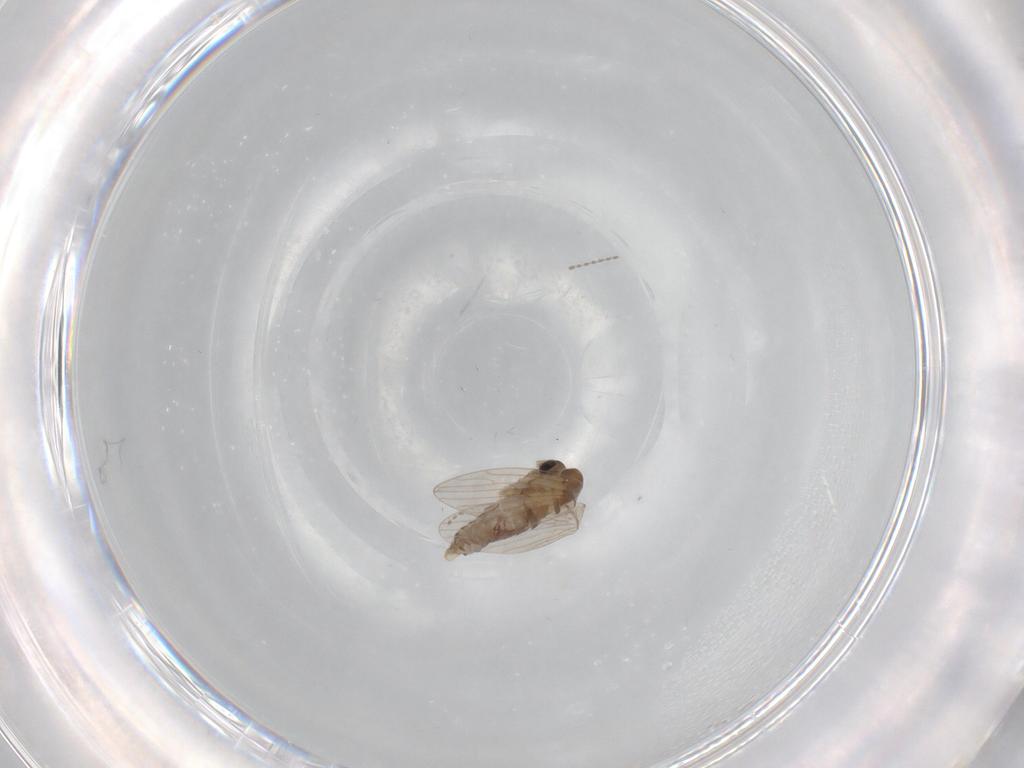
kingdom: Animalia
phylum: Arthropoda
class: Insecta
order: Diptera
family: Psychodidae
